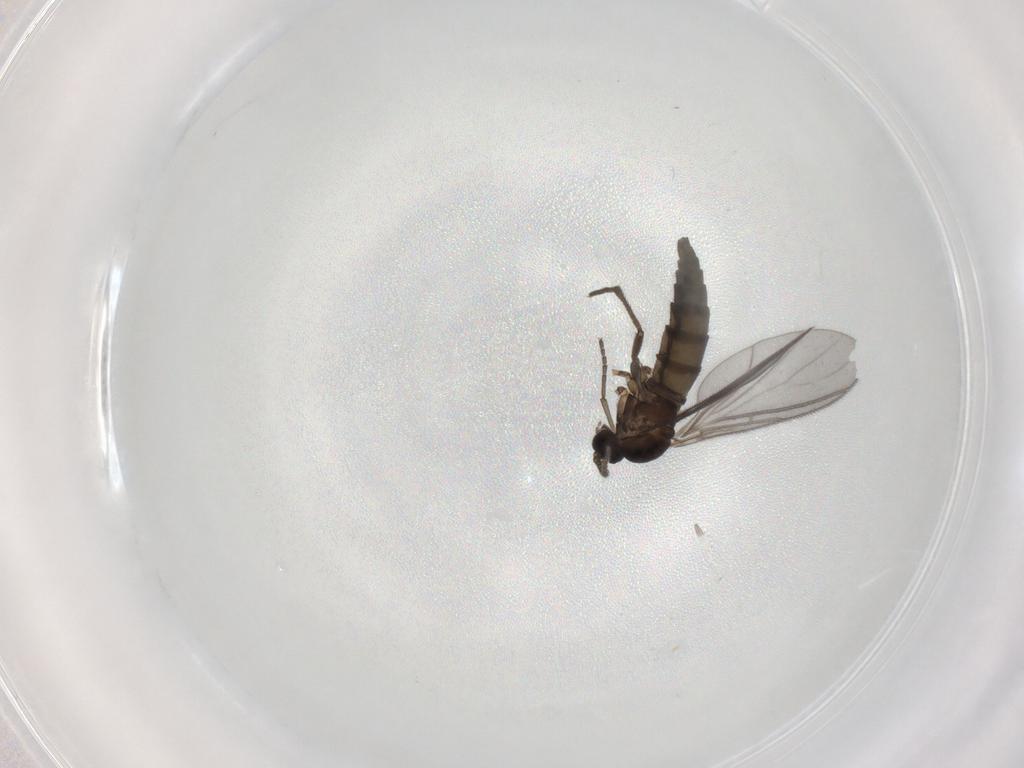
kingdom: Animalia
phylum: Arthropoda
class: Insecta
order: Diptera
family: Sciaridae
